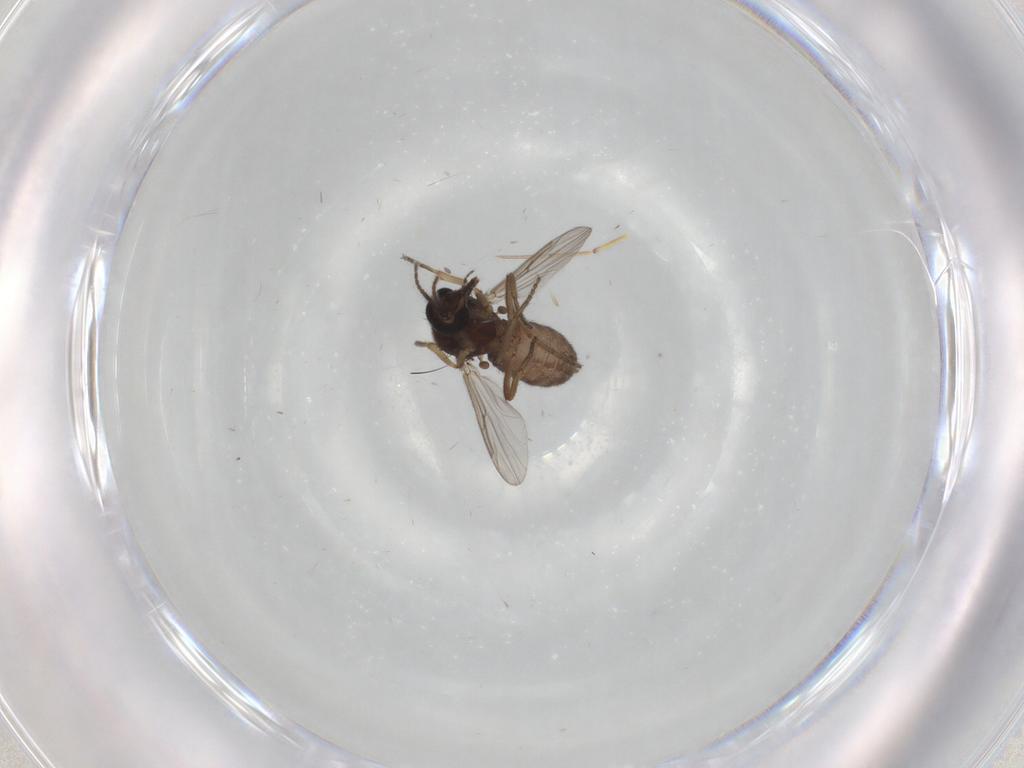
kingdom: Animalia
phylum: Arthropoda
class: Insecta
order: Diptera
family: Ceratopogonidae
